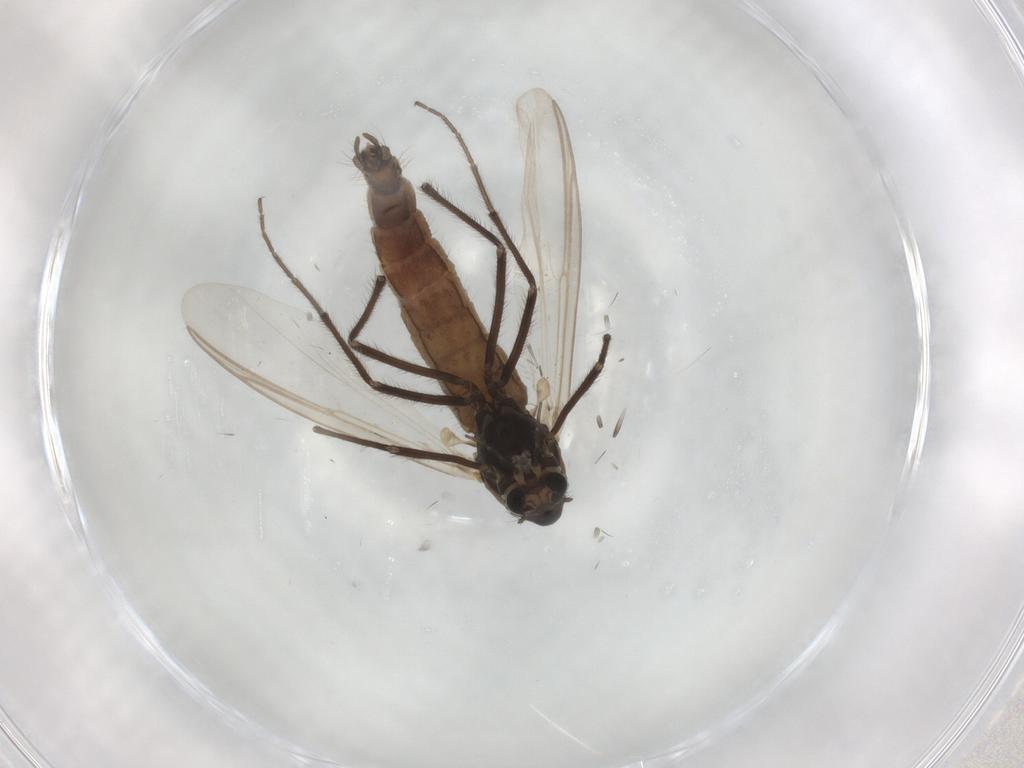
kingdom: Animalia
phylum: Arthropoda
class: Insecta
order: Diptera
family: Chironomidae
